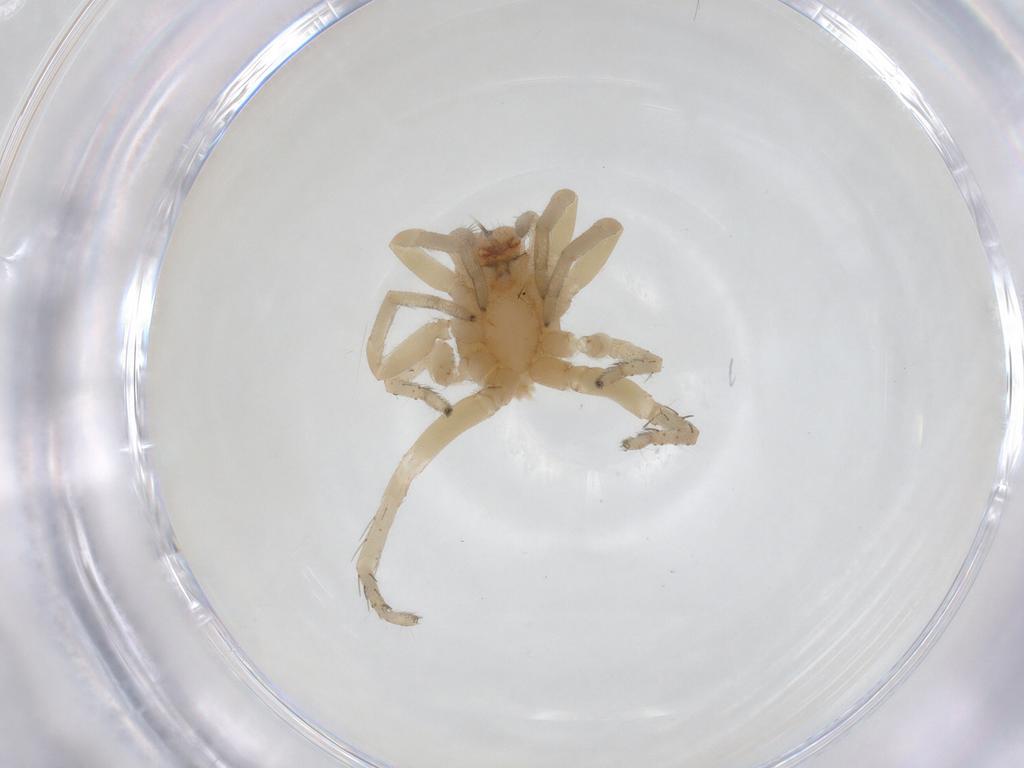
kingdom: Animalia
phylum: Arthropoda
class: Arachnida
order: Araneae
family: Clubionidae
